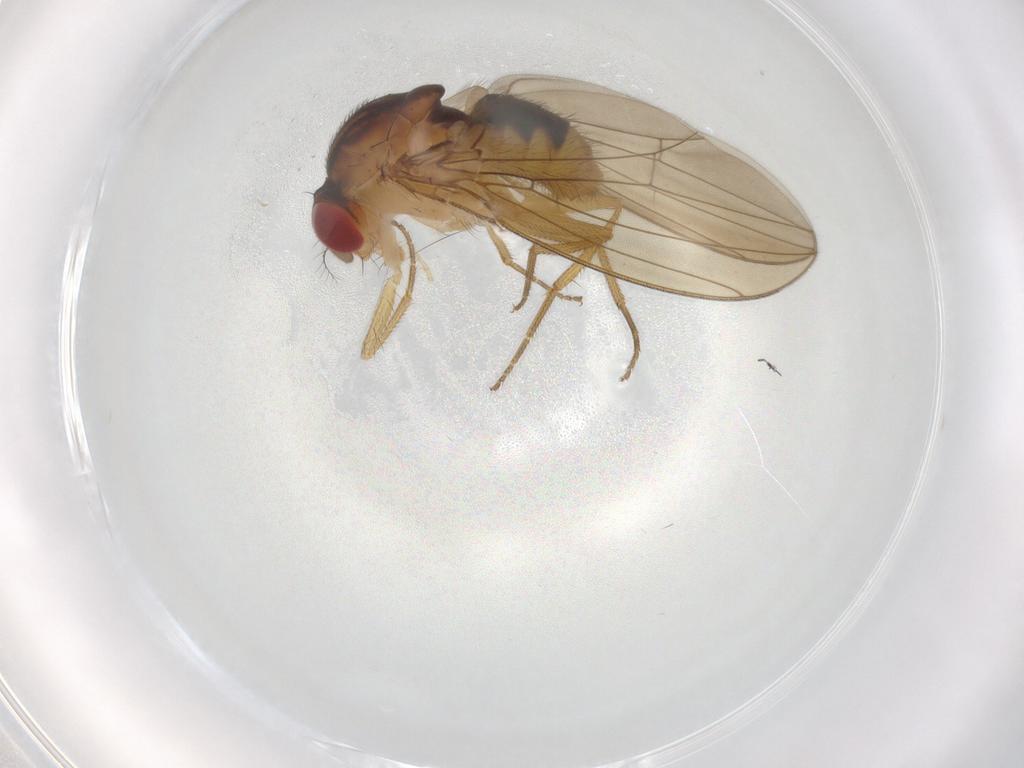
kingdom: Animalia
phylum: Arthropoda
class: Insecta
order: Diptera
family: Drosophilidae
